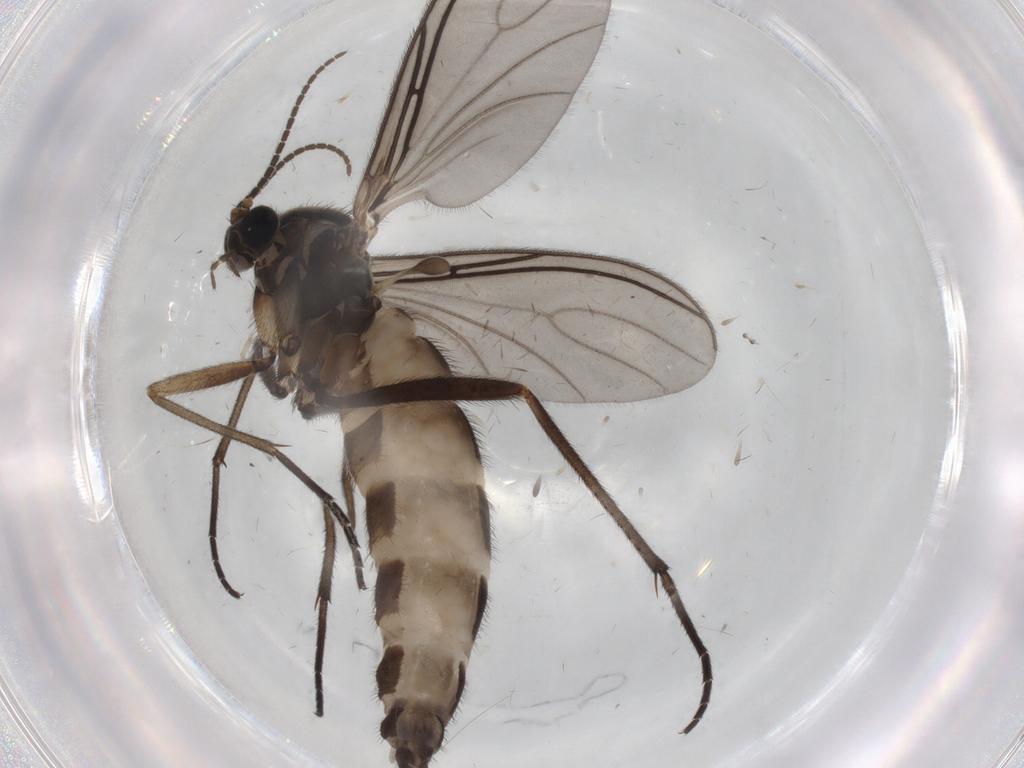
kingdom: Animalia
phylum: Arthropoda
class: Insecta
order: Diptera
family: Cecidomyiidae
